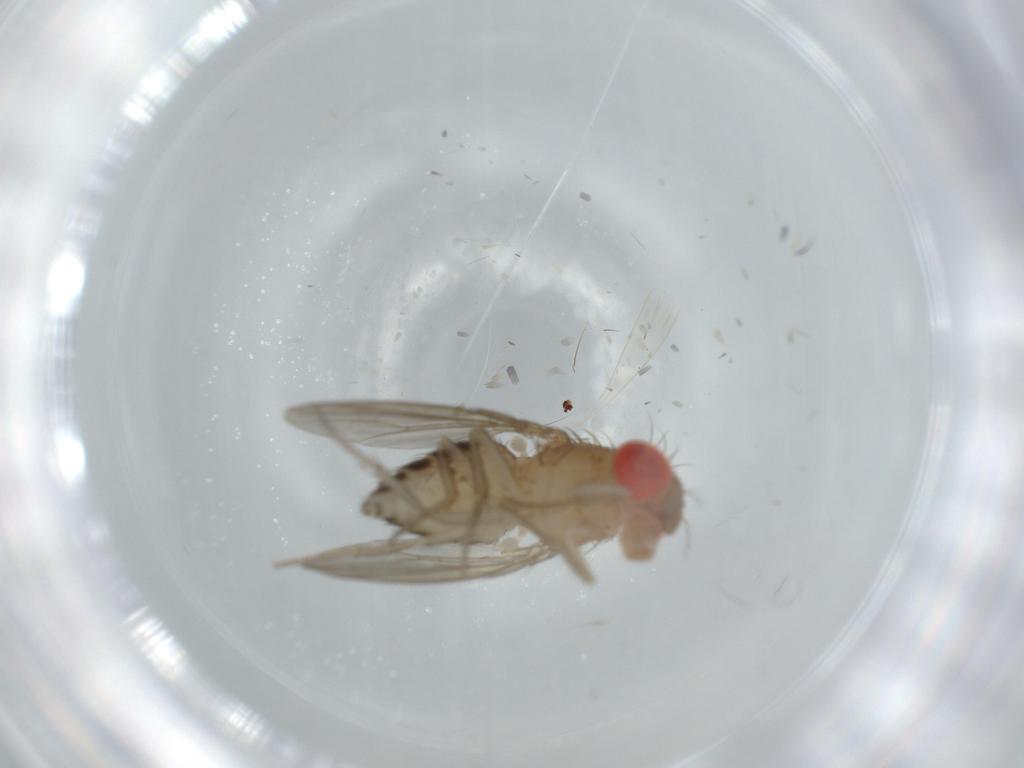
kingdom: Animalia
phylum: Arthropoda
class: Insecta
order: Diptera
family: Drosophilidae
